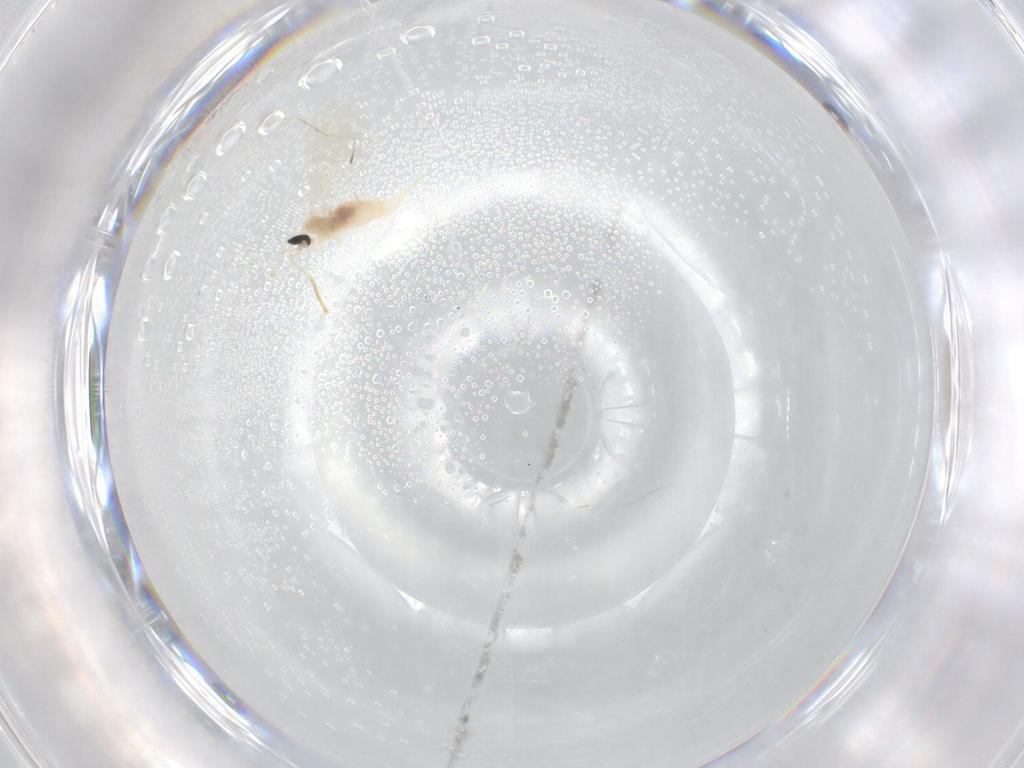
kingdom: Animalia
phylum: Arthropoda
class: Insecta
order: Diptera
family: Cecidomyiidae
